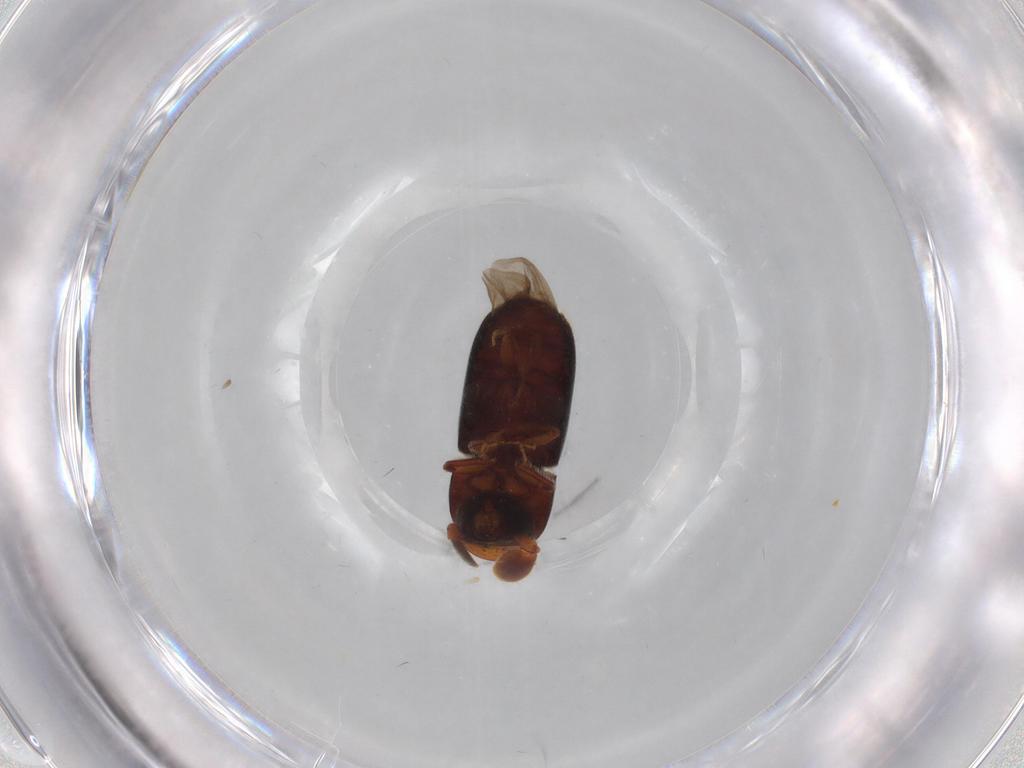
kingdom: Animalia
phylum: Arthropoda
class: Insecta
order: Coleoptera
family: Curculionidae
